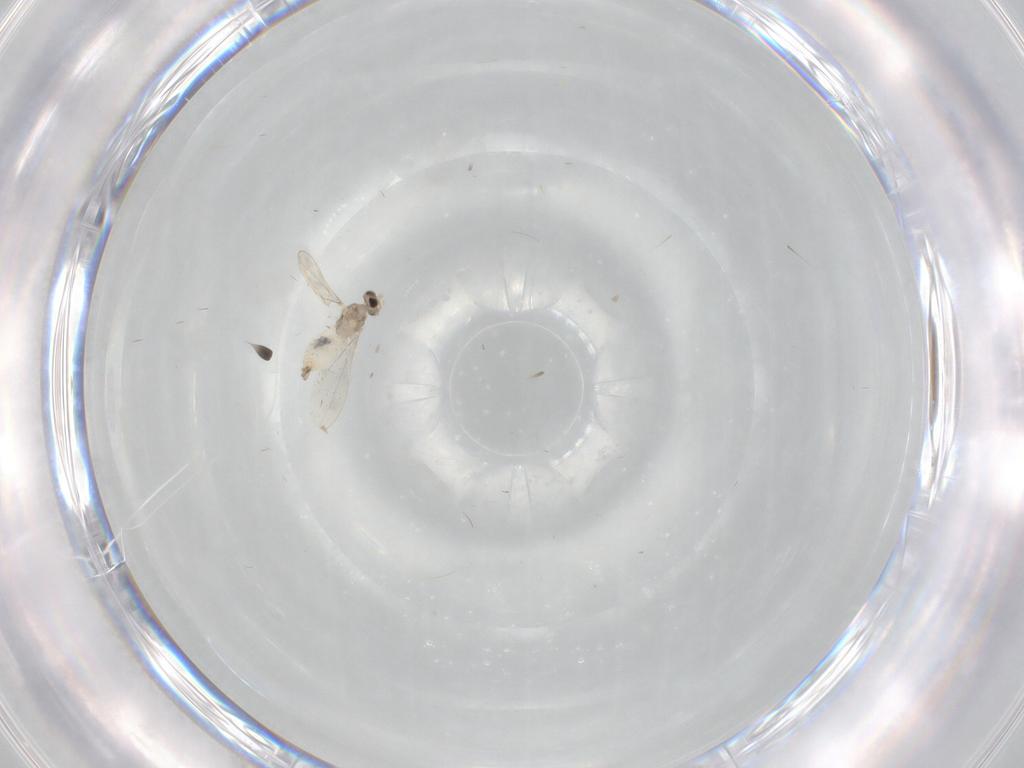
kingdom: Animalia
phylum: Arthropoda
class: Insecta
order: Diptera
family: Cecidomyiidae
